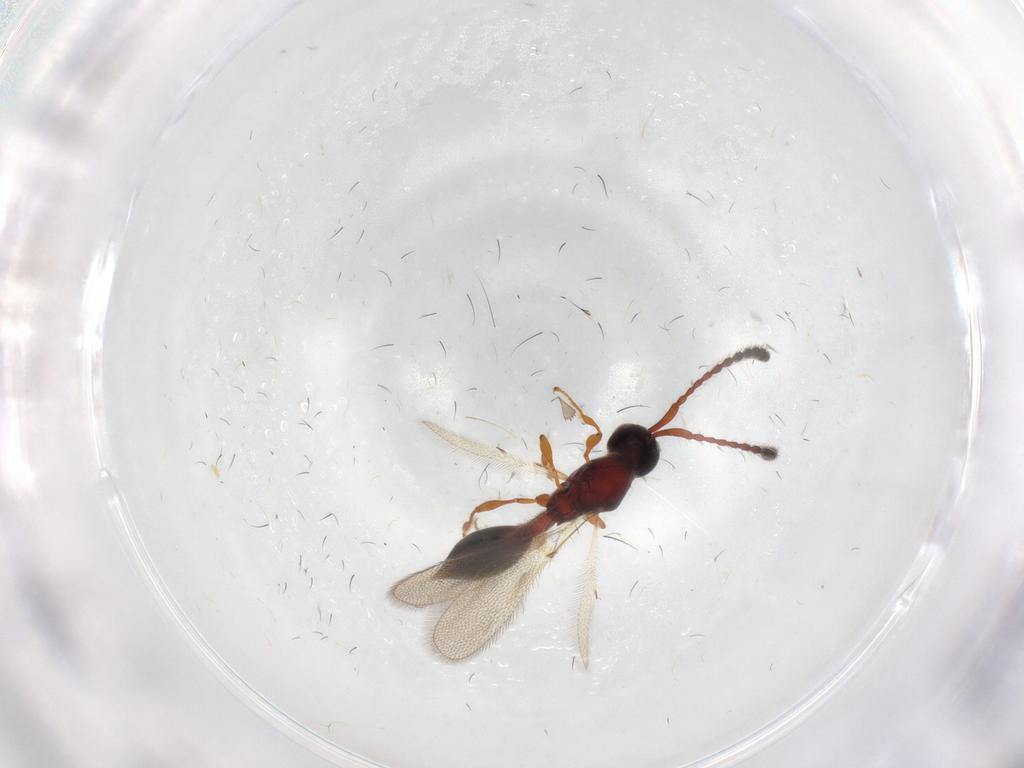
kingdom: Animalia
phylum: Arthropoda
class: Insecta
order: Hymenoptera
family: Diapriidae
